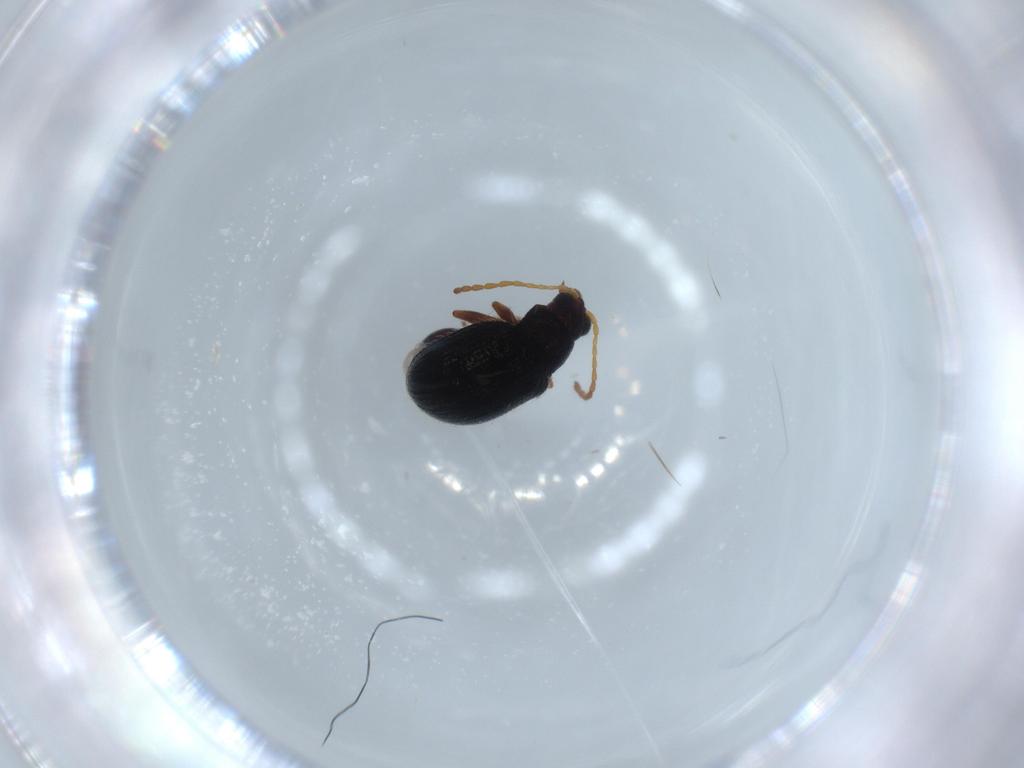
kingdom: Animalia
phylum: Arthropoda
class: Insecta
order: Coleoptera
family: Chrysomelidae
